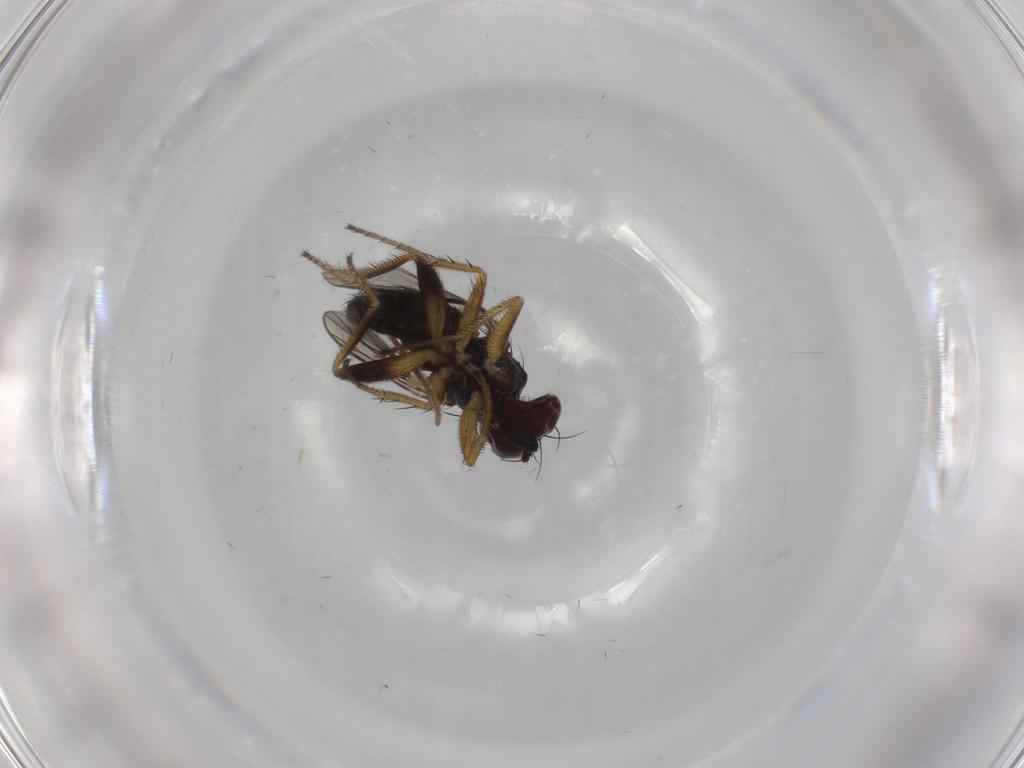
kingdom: Animalia
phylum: Arthropoda
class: Insecta
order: Diptera
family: Dolichopodidae
